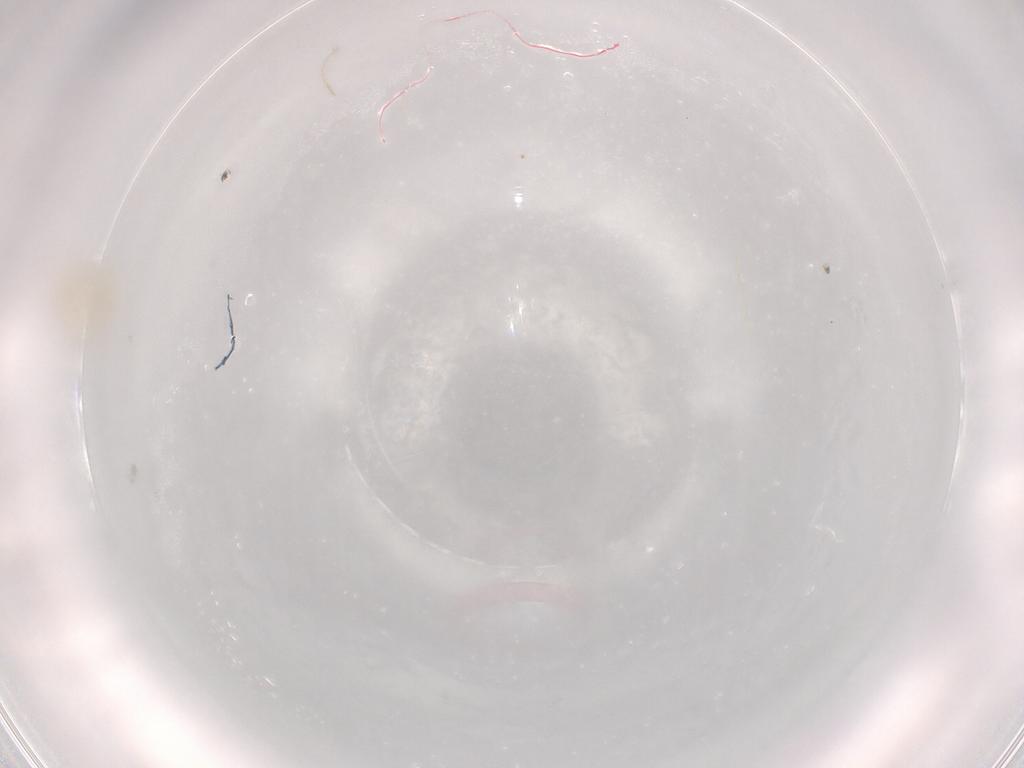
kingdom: Animalia
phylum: Arthropoda
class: Arachnida
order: Trombidiformes
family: Stigmaeidae
